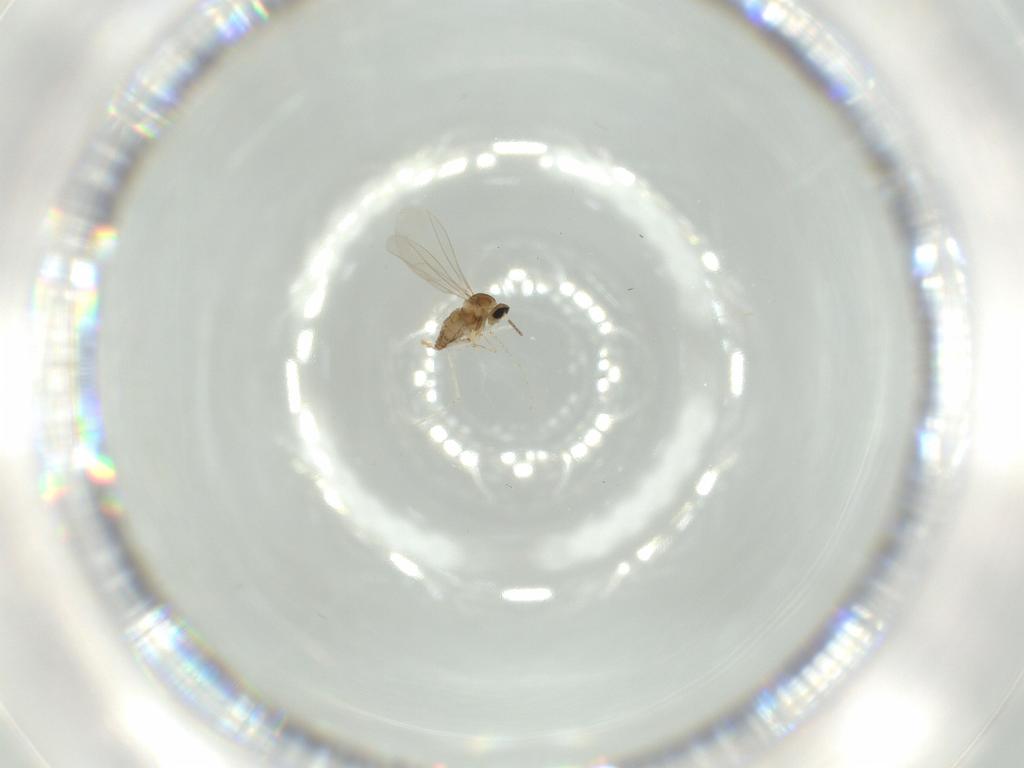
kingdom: Animalia
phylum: Arthropoda
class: Insecta
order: Diptera
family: Cecidomyiidae
